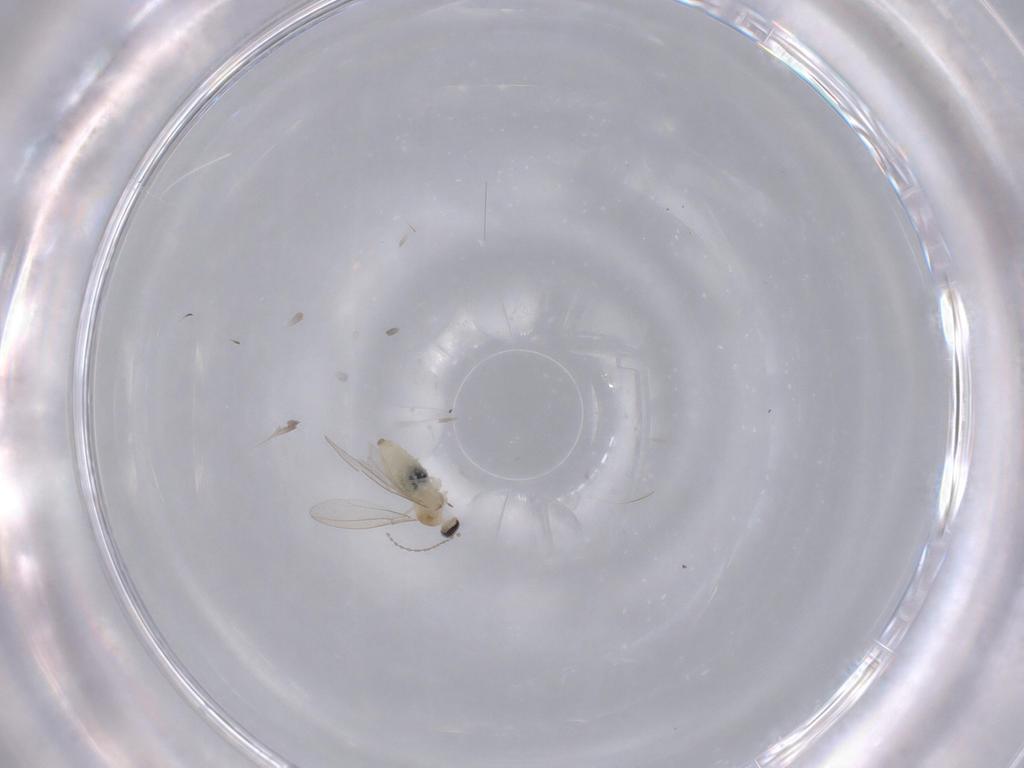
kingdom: Animalia
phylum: Arthropoda
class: Insecta
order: Diptera
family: Cecidomyiidae
